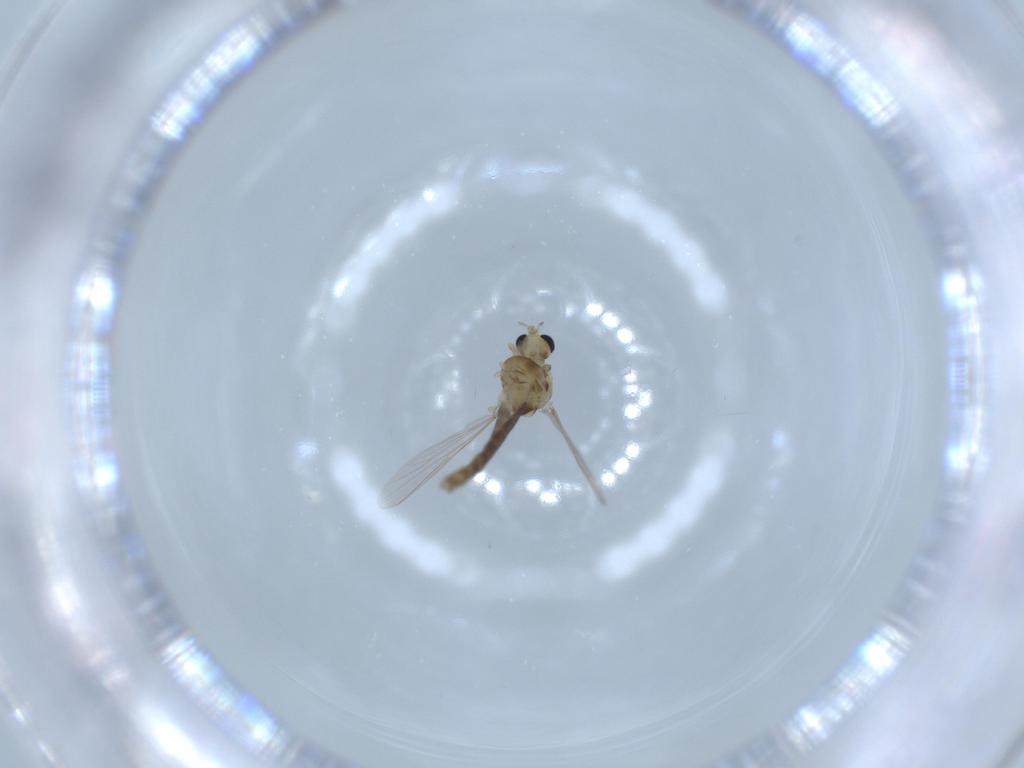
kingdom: Animalia
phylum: Arthropoda
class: Insecta
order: Diptera
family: Chironomidae
